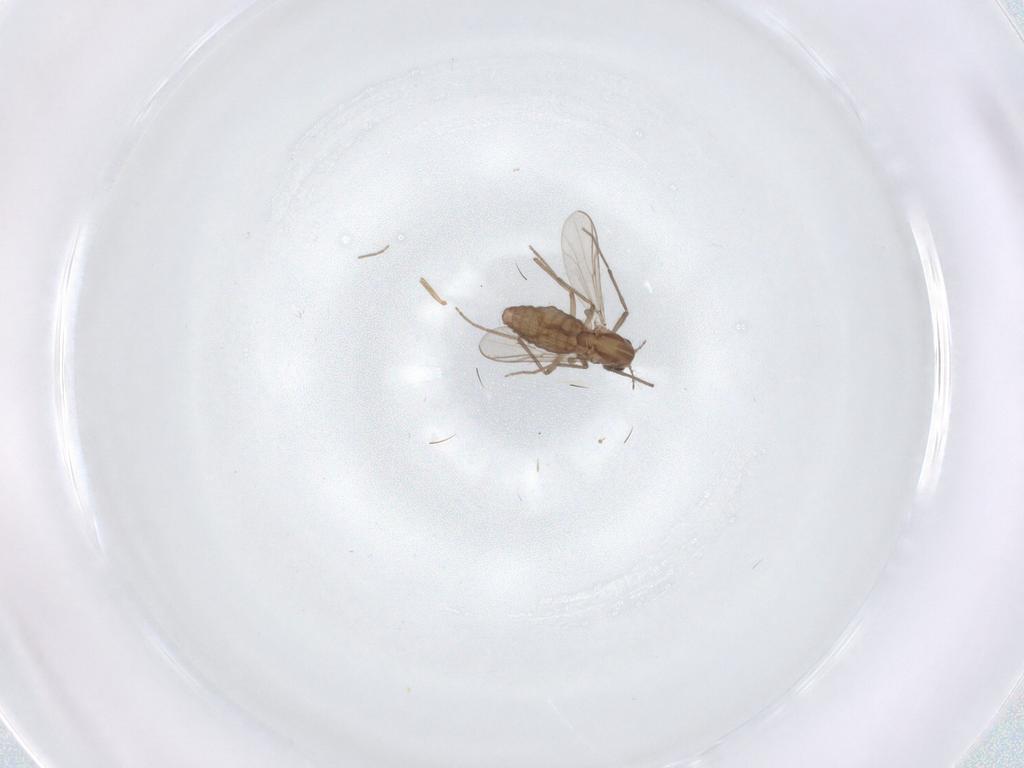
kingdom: Animalia
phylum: Arthropoda
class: Insecta
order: Diptera
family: Chironomidae
